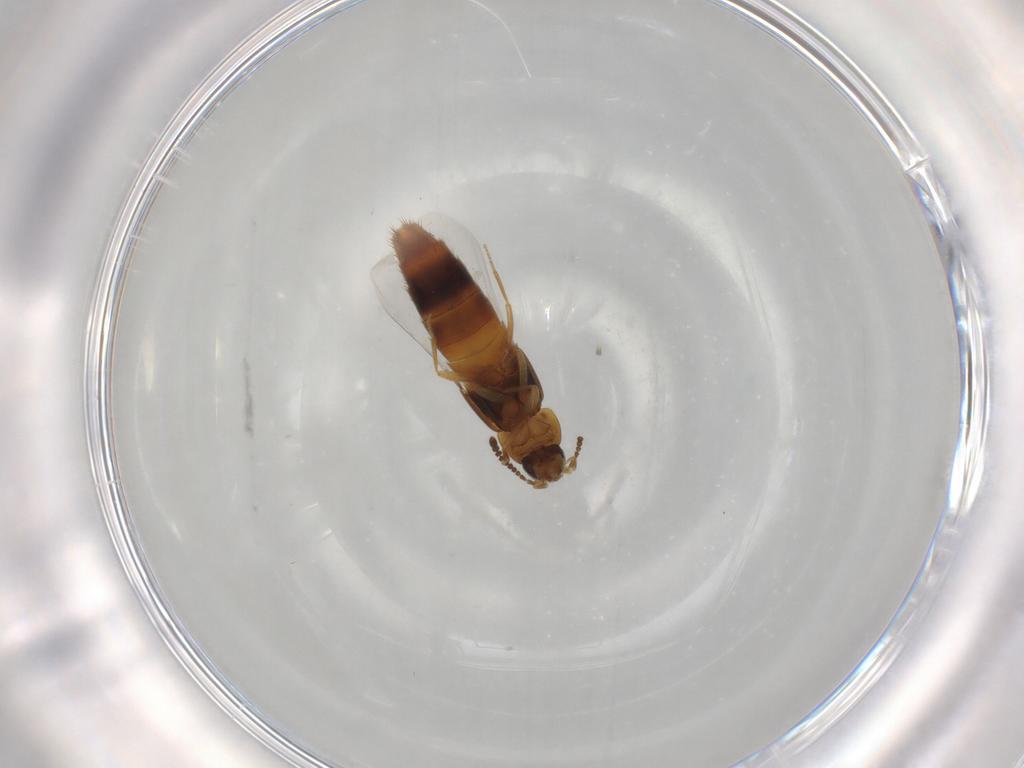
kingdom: Animalia
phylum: Arthropoda
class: Insecta
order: Coleoptera
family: Staphylinidae
